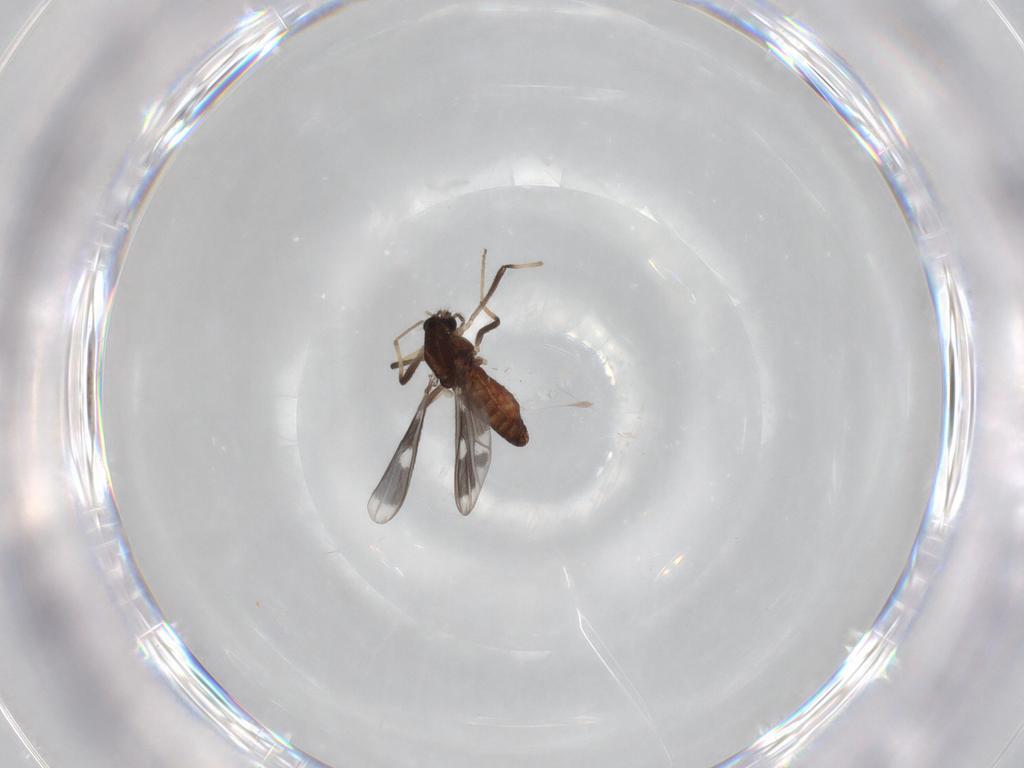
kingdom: Animalia
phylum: Arthropoda
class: Insecta
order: Diptera
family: Chironomidae
